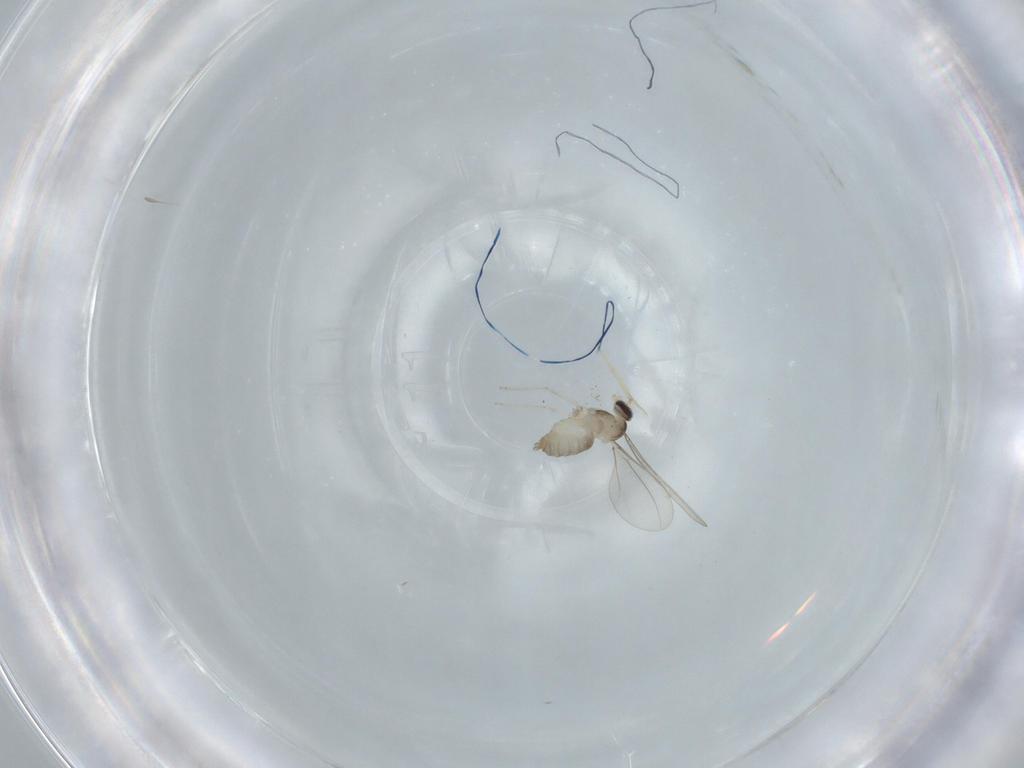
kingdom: Animalia
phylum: Arthropoda
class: Insecta
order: Diptera
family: Cecidomyiidae
